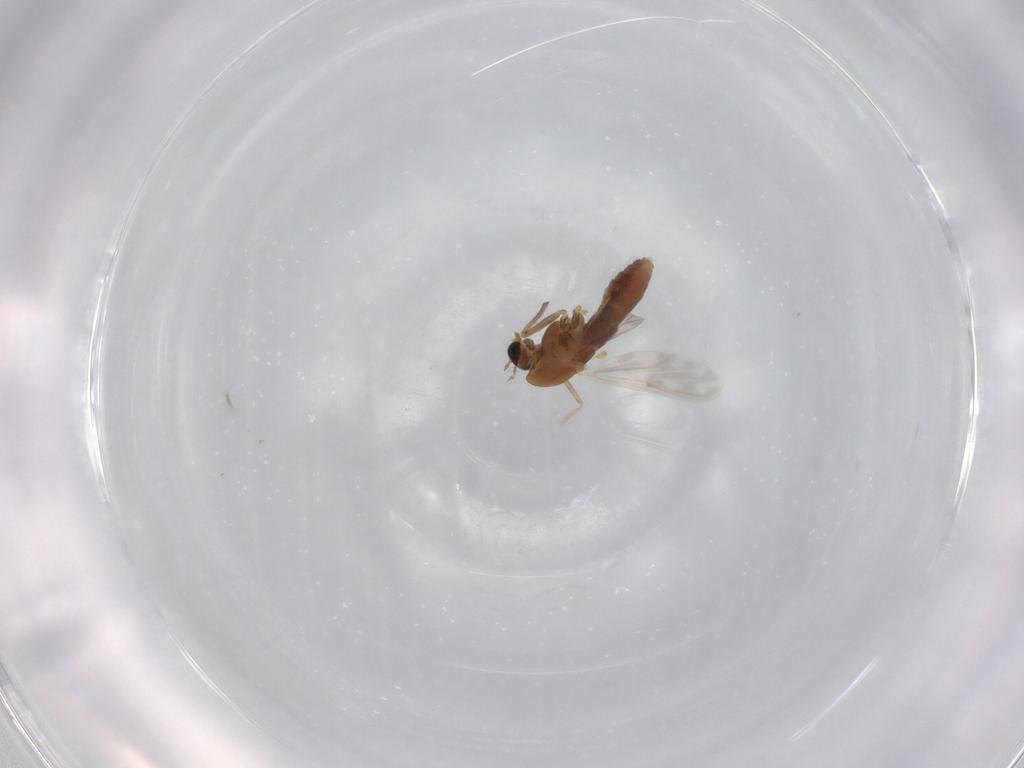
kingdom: Animalia
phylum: Arthropoda
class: Insecta
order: Diptera
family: Chironomidae
